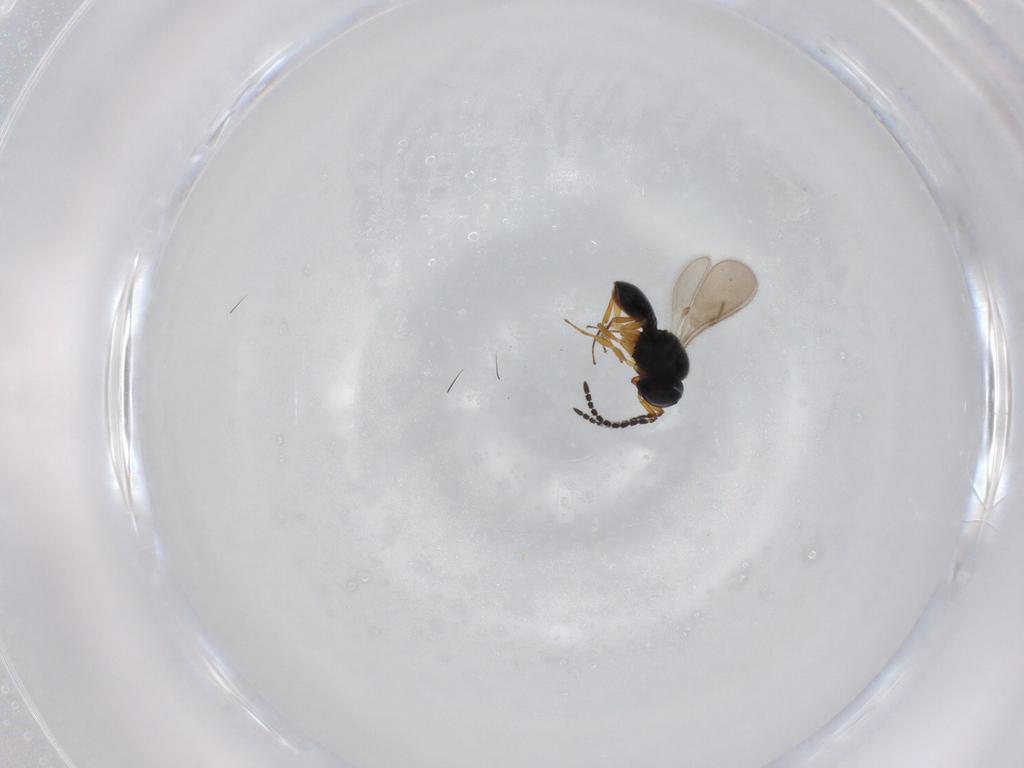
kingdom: Animalia
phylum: Arthropoda
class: Insecta
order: Hymenoptera
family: Scelionidae
